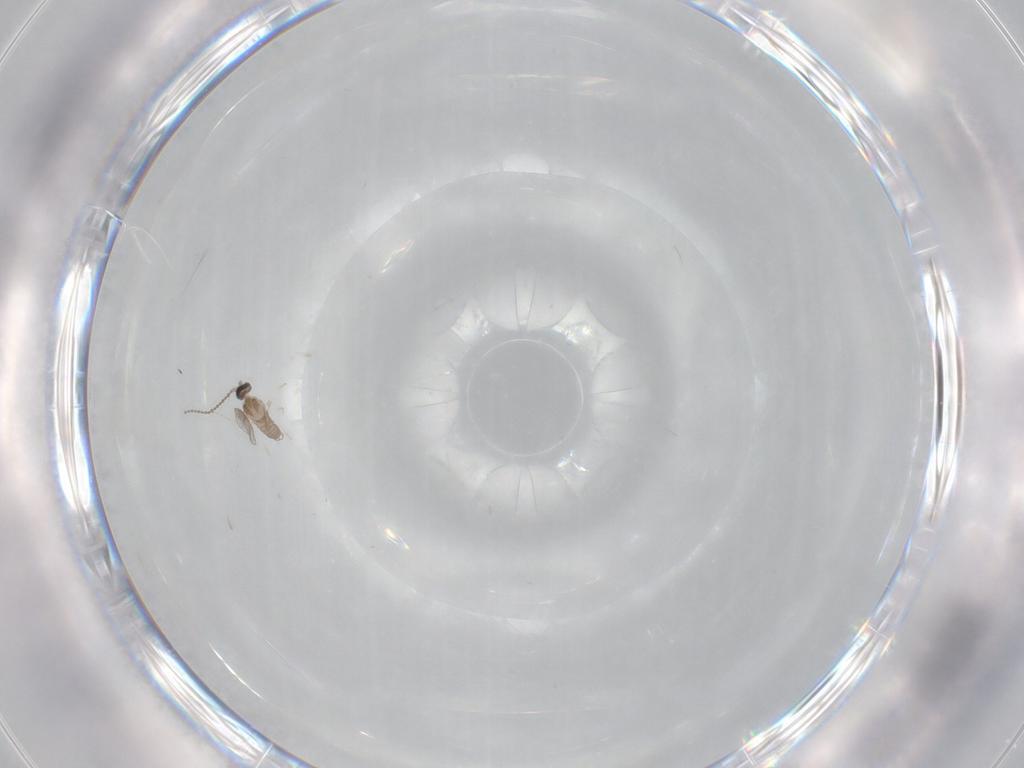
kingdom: Animalia
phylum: Arthropoda
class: Insecta
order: Diptera
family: Cecidomyiidae
